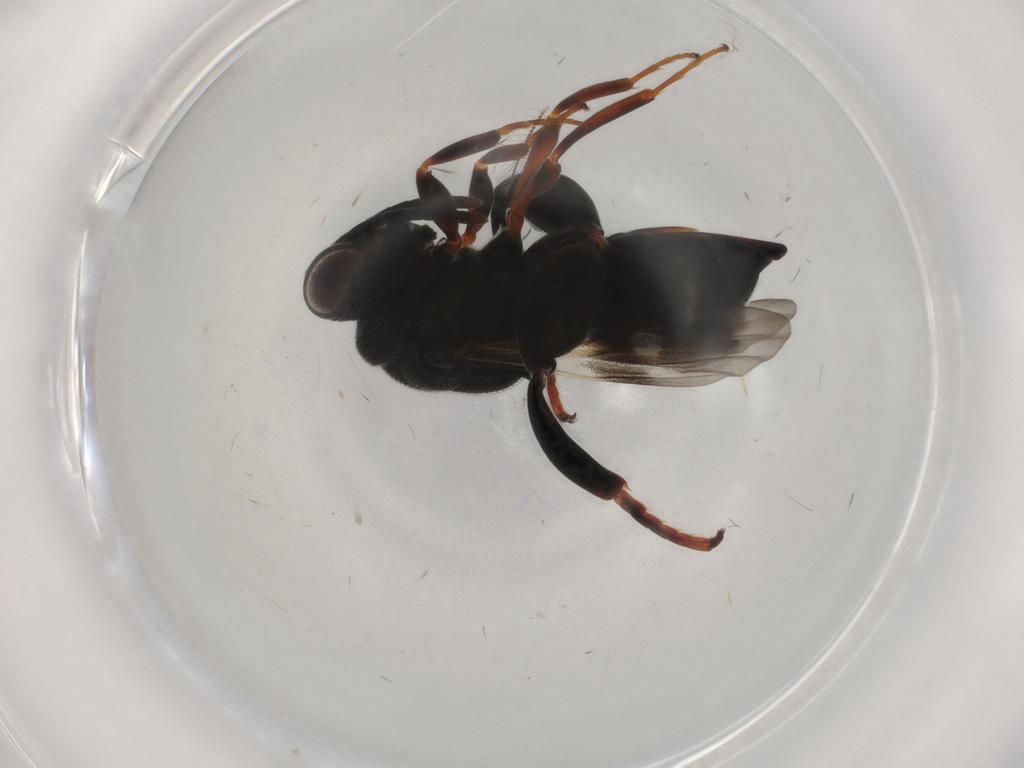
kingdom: Animalia
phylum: Arthropoda
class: Insecta
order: Hymenoptera
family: Chalcididae
